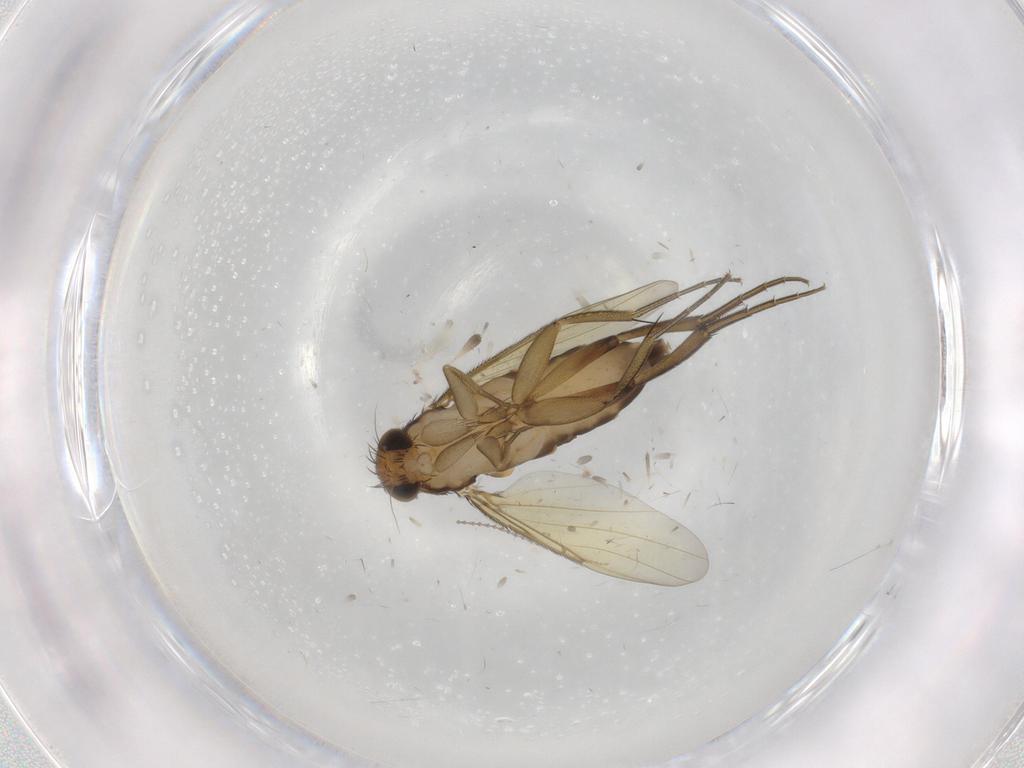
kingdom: Animalia
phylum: Arthropoda
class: Insecta
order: Diptera
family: Phoridae
